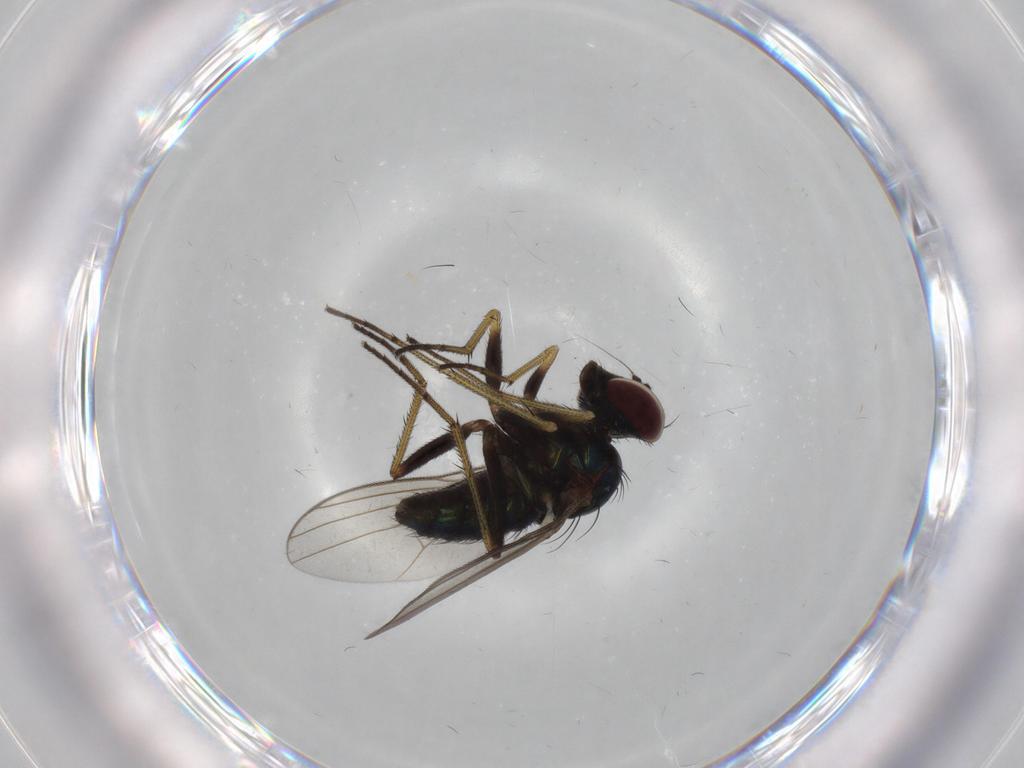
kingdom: Animalia
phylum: Arthropoda
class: Insecta
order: Diptera
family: Dolichopodidae
